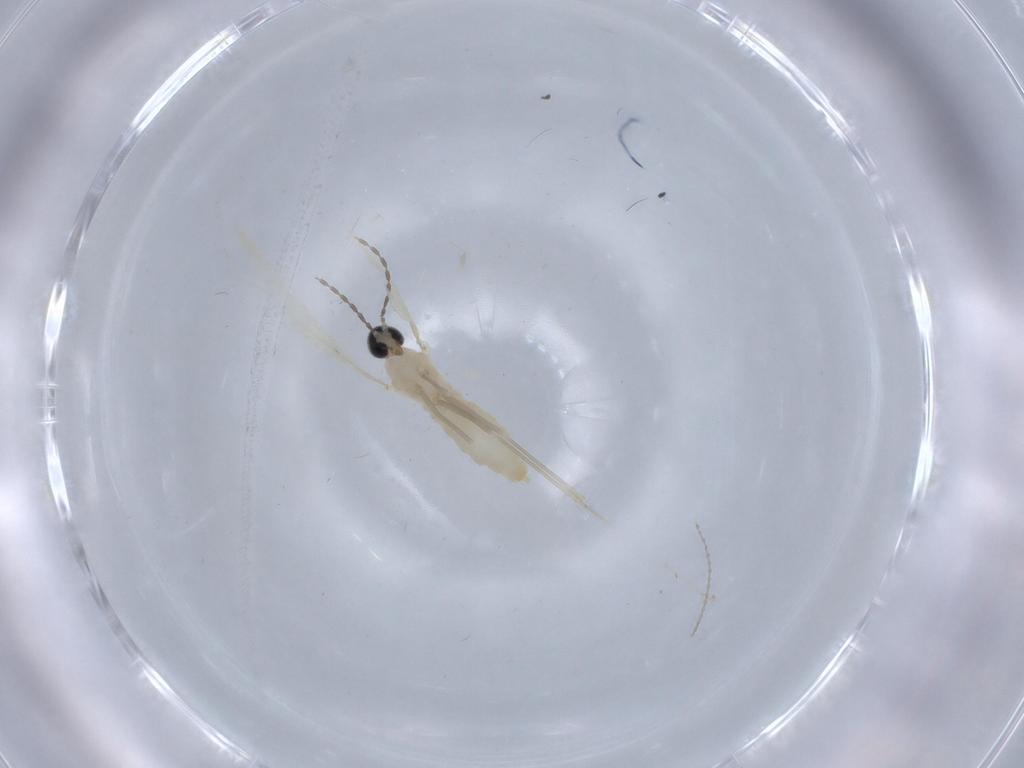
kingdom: Animalia
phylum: Arthropoda
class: Insecta
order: Diptera
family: Cecidomyiidae
